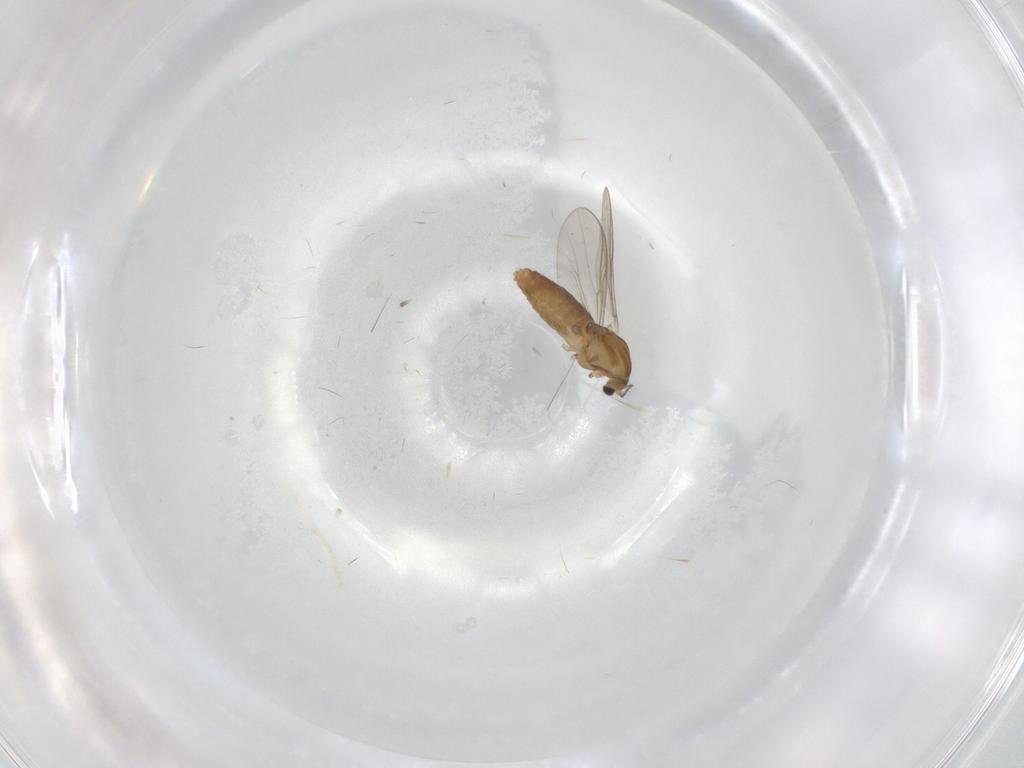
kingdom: Animalia
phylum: Arthropoda
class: Insecta
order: Diptera
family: Chironomidae
